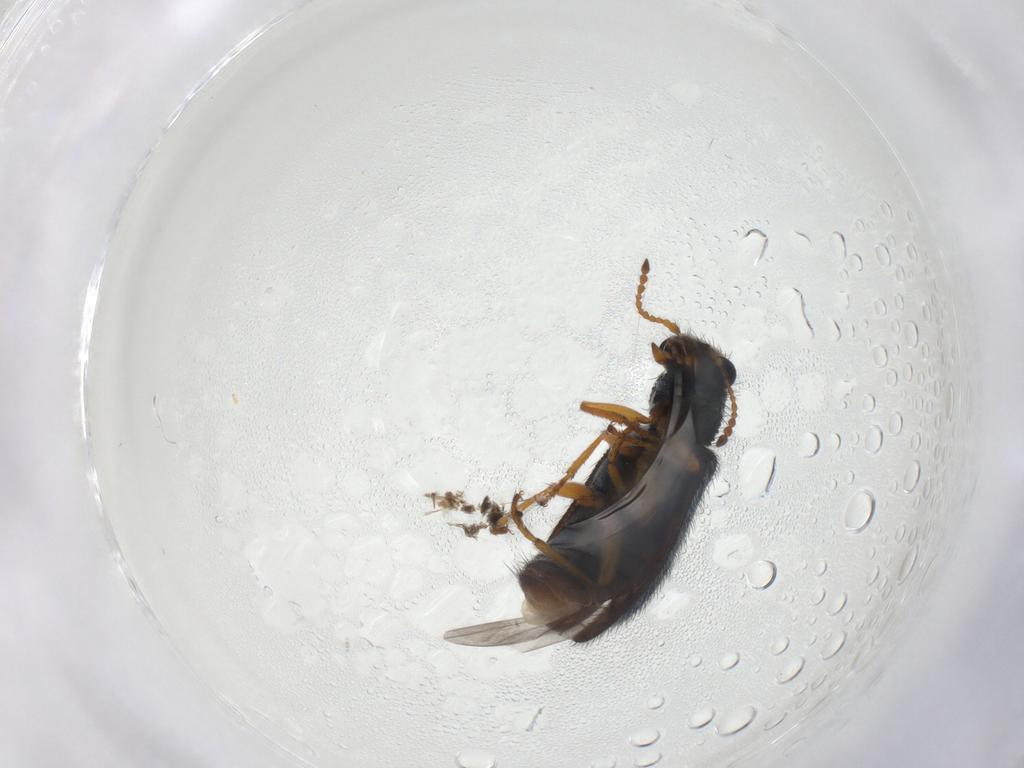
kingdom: Animalia
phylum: Arthropoda
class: Insecta
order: Coleoptera
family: Melyridae
